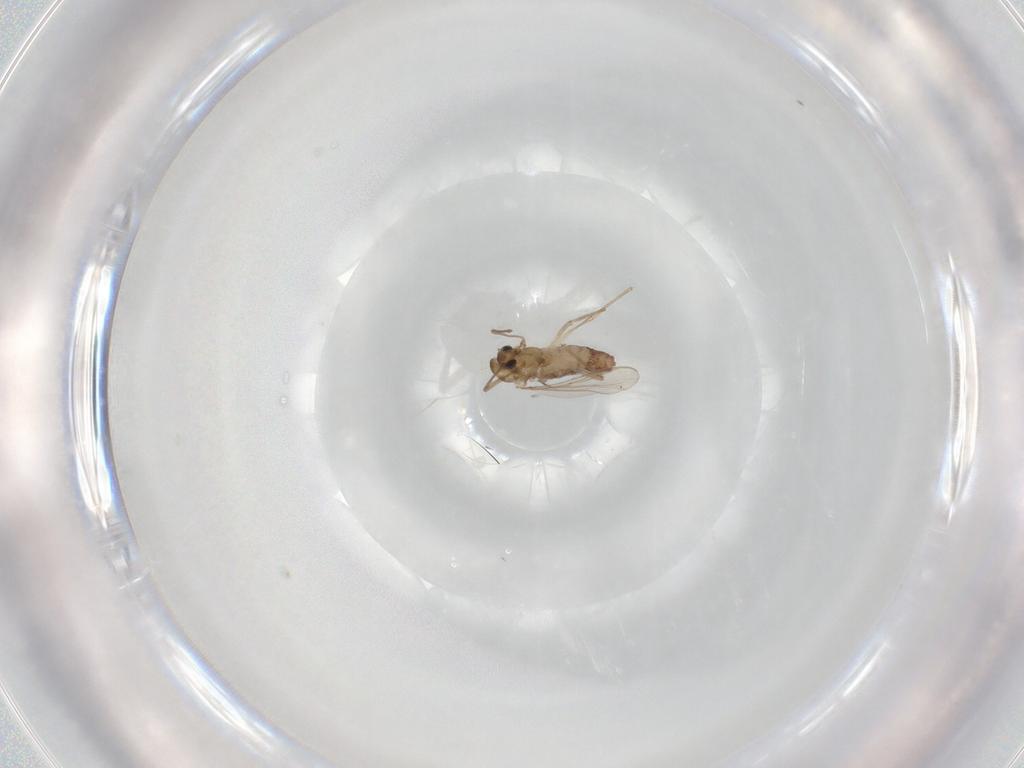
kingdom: Animalia
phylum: Arthropoda
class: Insecta
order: Diptera
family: Chironomidae
